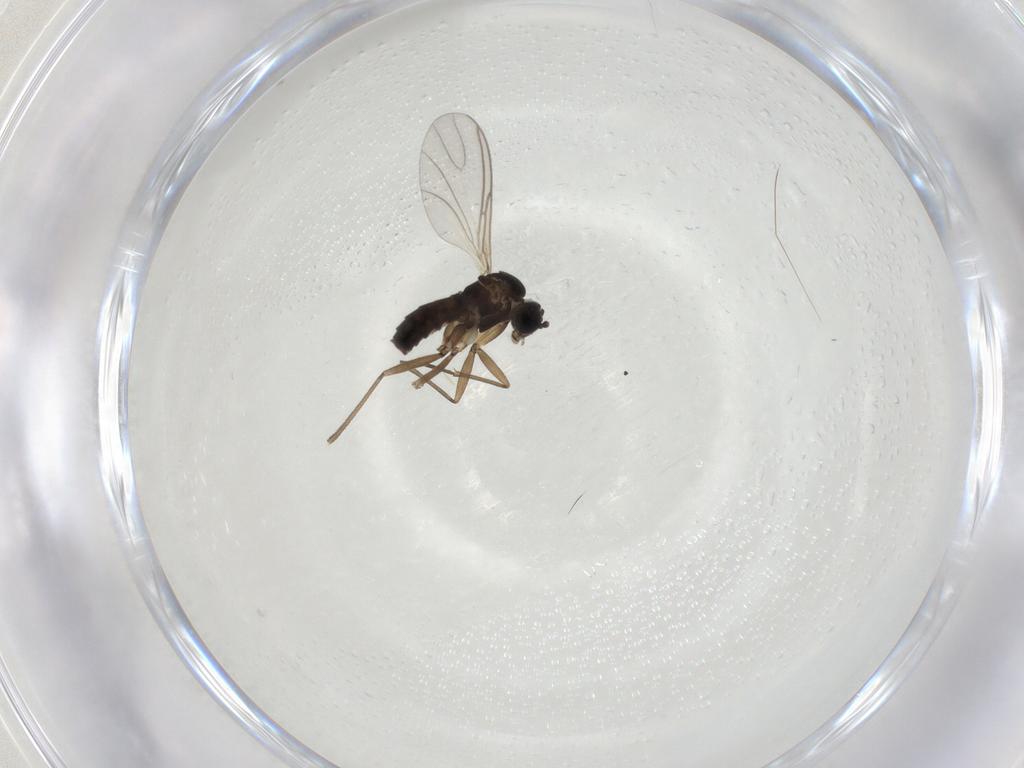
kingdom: Animalia
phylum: Arthropoda
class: Insecta
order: Diptera
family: Sciaridae
